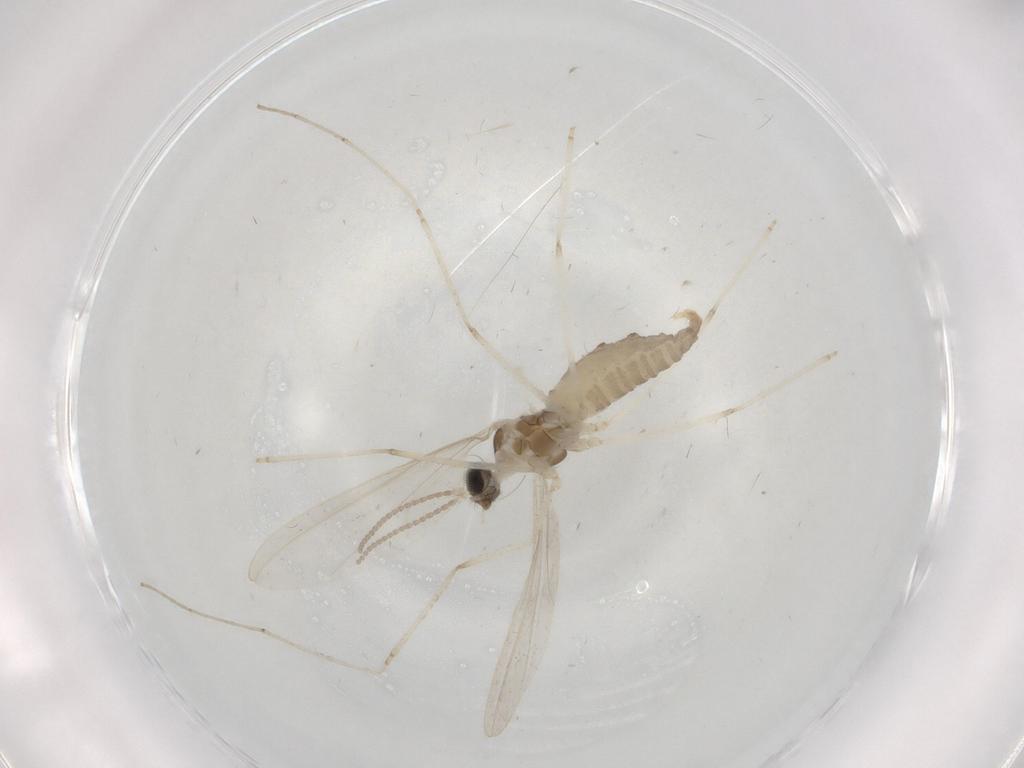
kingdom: Animalia
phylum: Arthropoda
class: Insecta
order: Diptera
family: Cecidomyiidae
